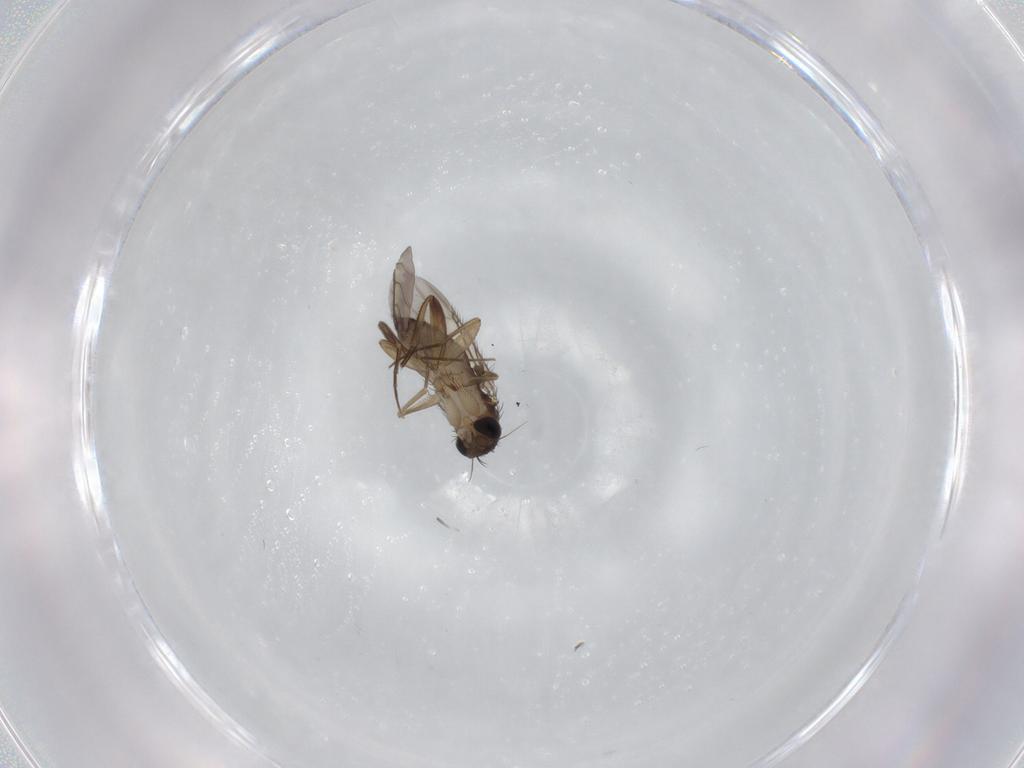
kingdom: Animalia
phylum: Arthropoda
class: Insecta
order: Diptera
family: Phoridae
